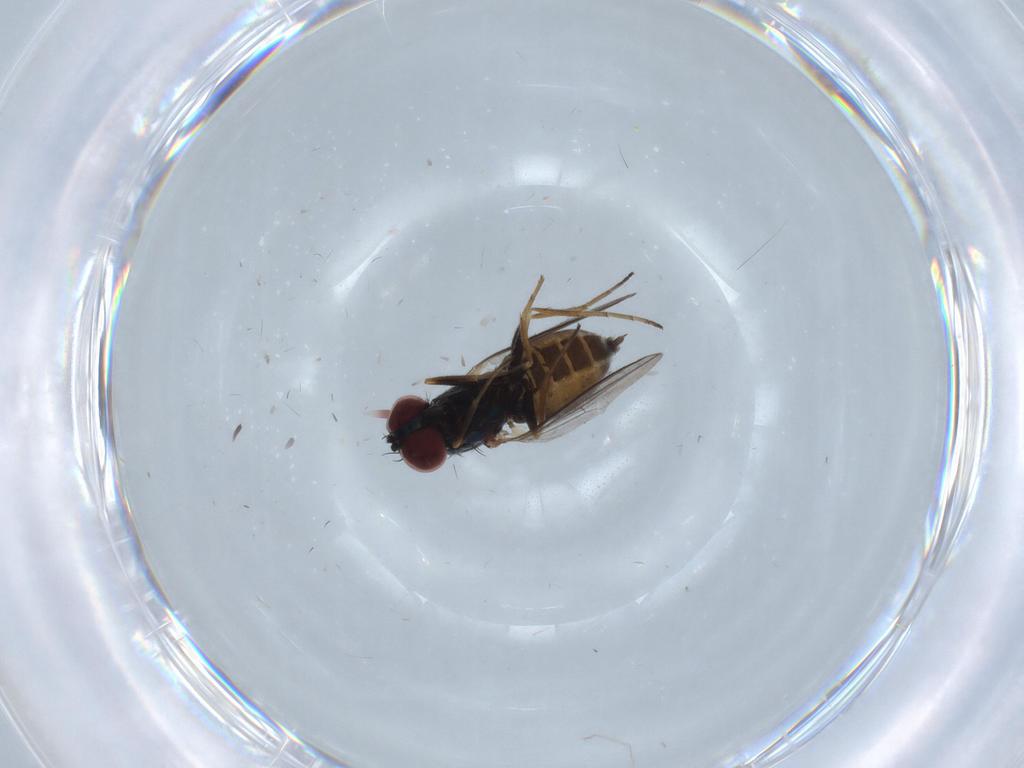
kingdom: Animalia
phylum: Arthropoda
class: Insecta
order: Diptera
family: Dolichopodidae
